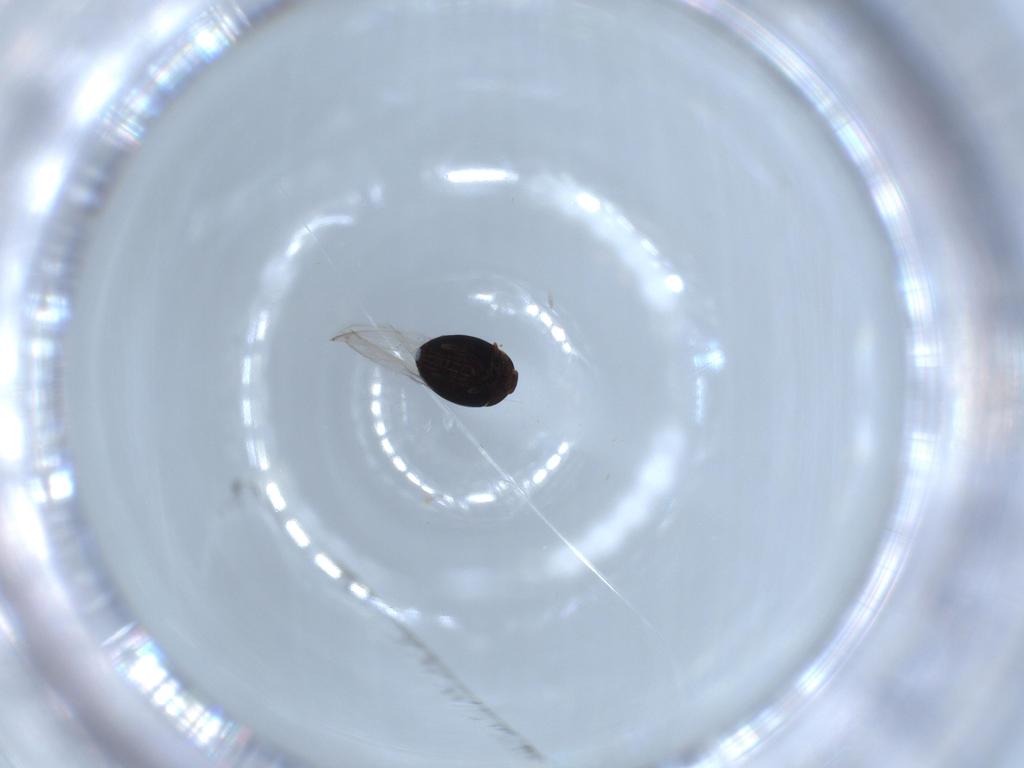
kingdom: Animalia
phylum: Arthropoda
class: Insecta
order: Coleoptera
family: Corylophidae
